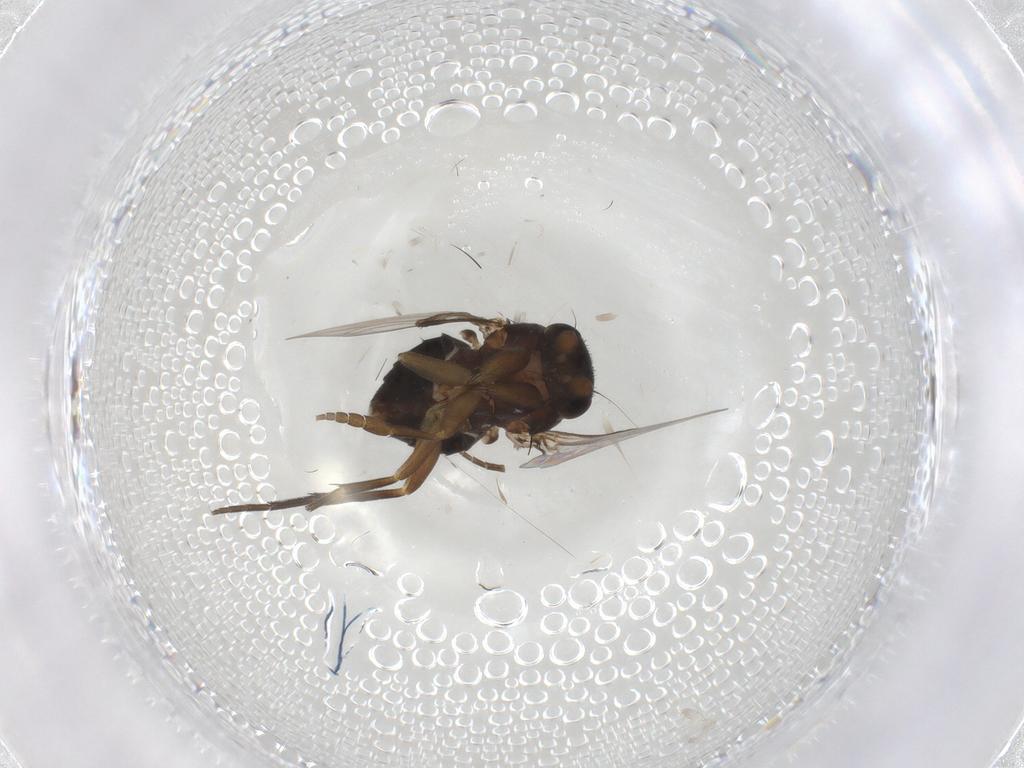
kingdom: Animalia
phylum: Arthropoda
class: Insecta
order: Diptera
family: Phoridae
